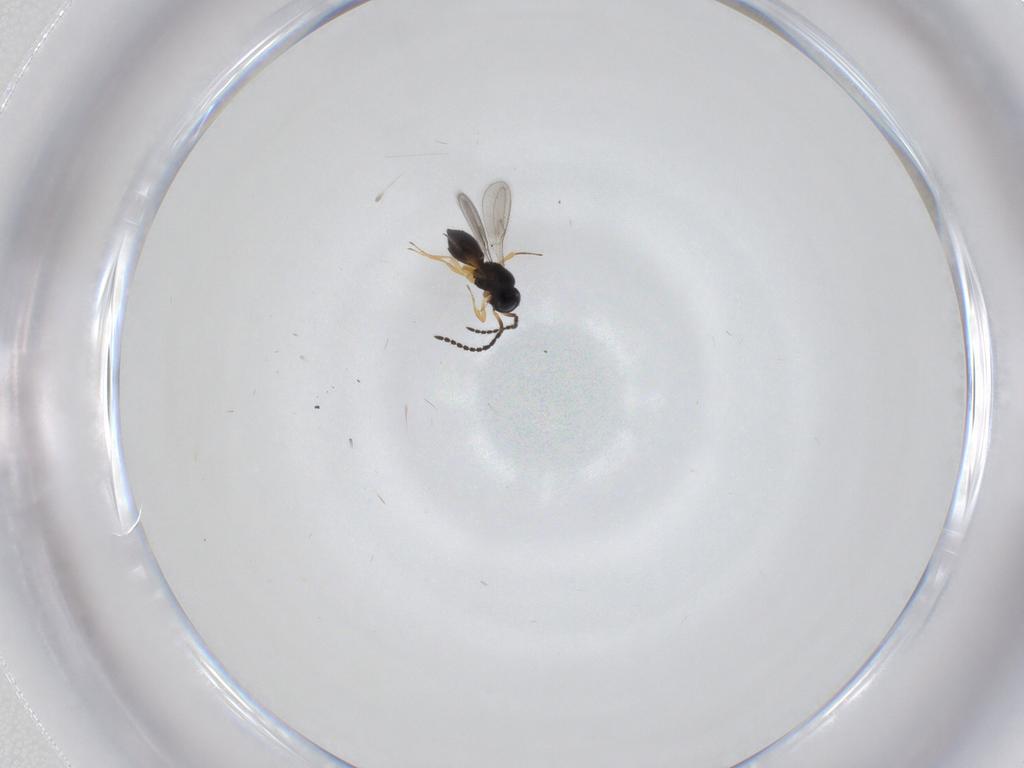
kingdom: Animalia
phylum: Arthropoda
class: Insecta
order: Hymenoptera
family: Scelionidae
